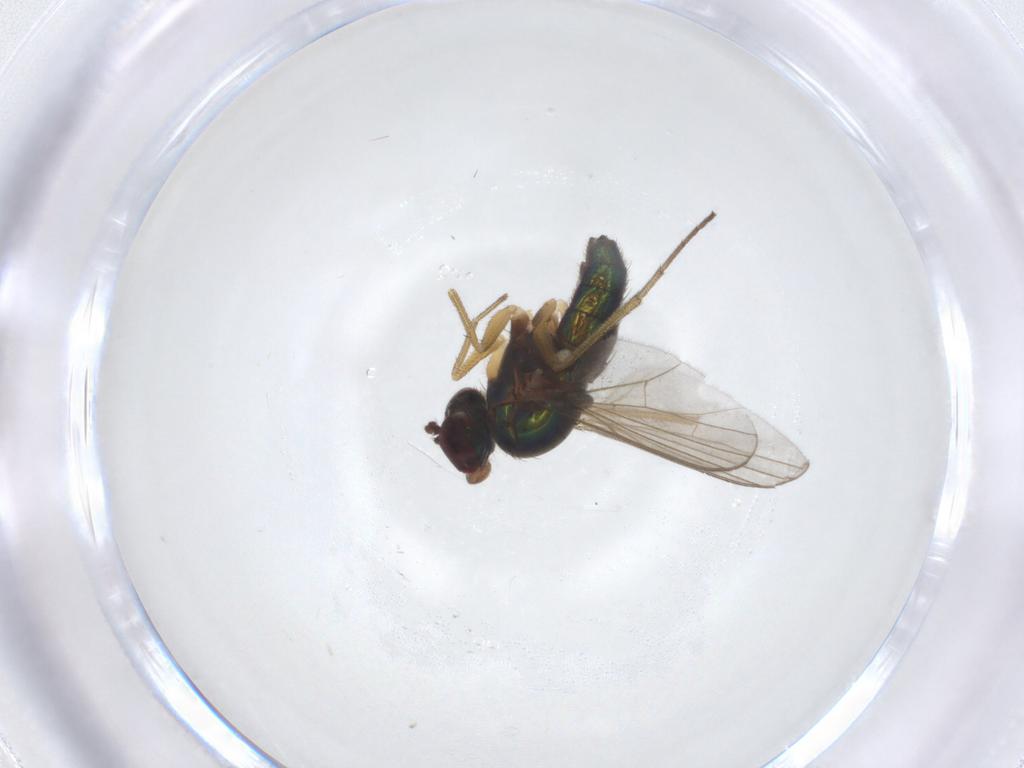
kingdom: Animalia
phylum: Arthropoda
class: Insecta
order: Diptera
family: Dolichopodidae
